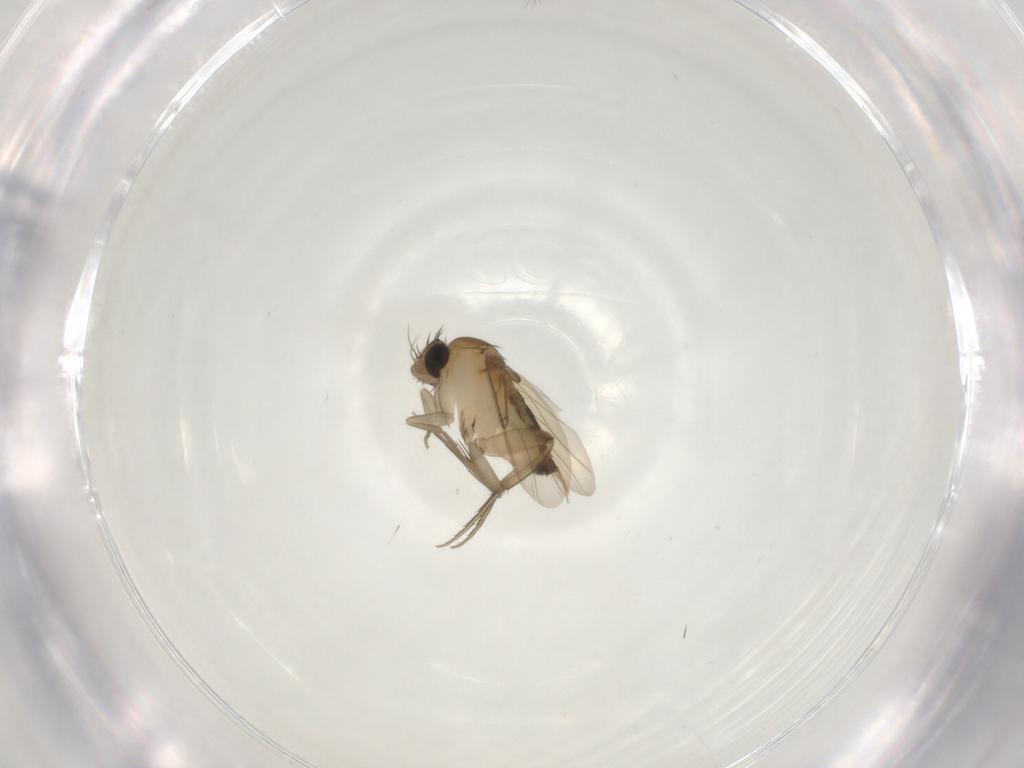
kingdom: Animalia
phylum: Arthropoda
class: Insecta
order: Diptera
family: Phoridae
